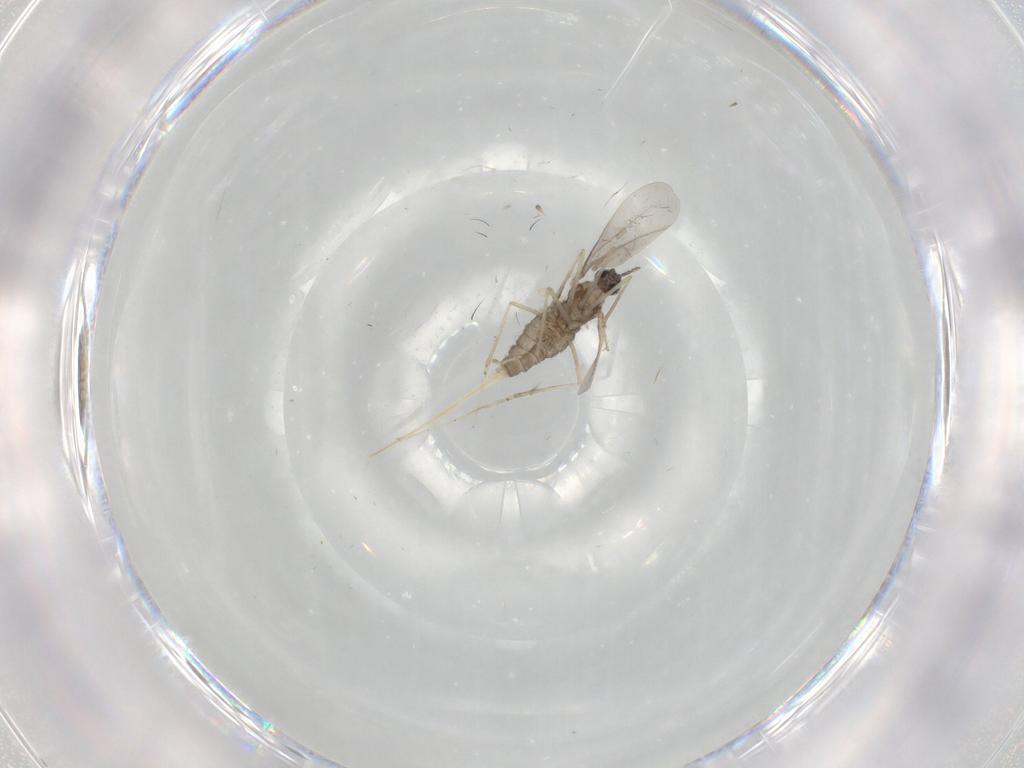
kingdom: Animalia
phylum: Arthropoda
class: Insecta
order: Diptera
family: Cecidomyiidae
